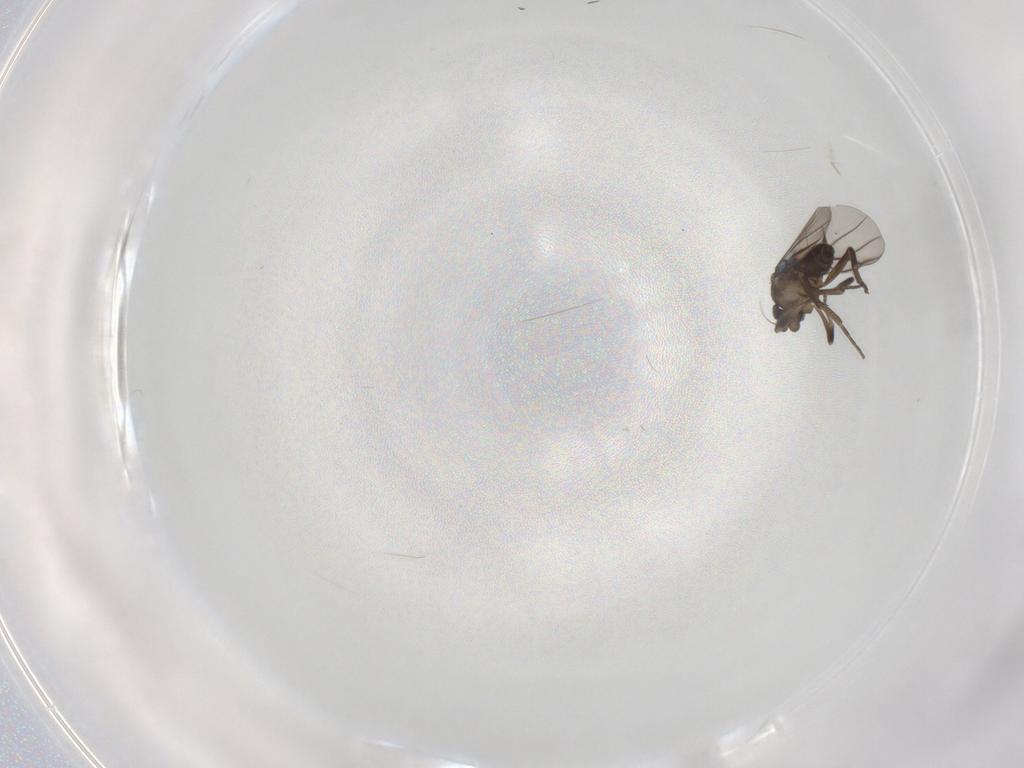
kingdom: Animalia
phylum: Arthropoda
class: Insecta
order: Diptera
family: Phoridae
